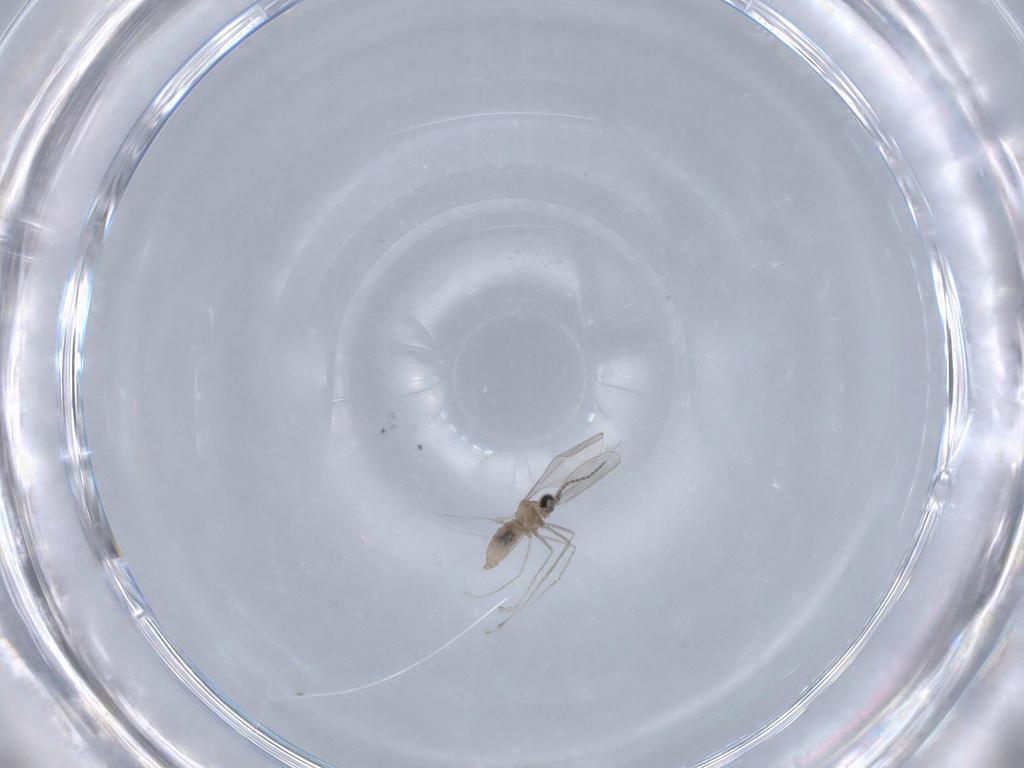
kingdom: Animalia
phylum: Arthropoda
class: Insecta
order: Diptera
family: Cecidomyiidae
